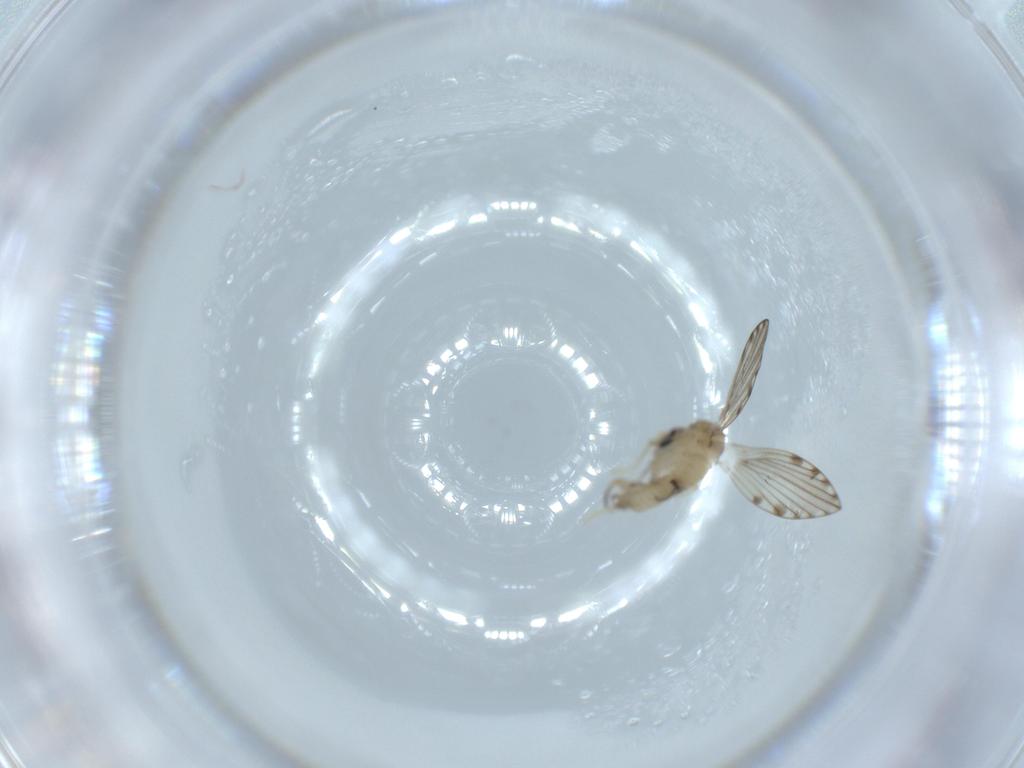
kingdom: Animalia
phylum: Arthropoda
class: Insecta
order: Diptera
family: Psychodidae
